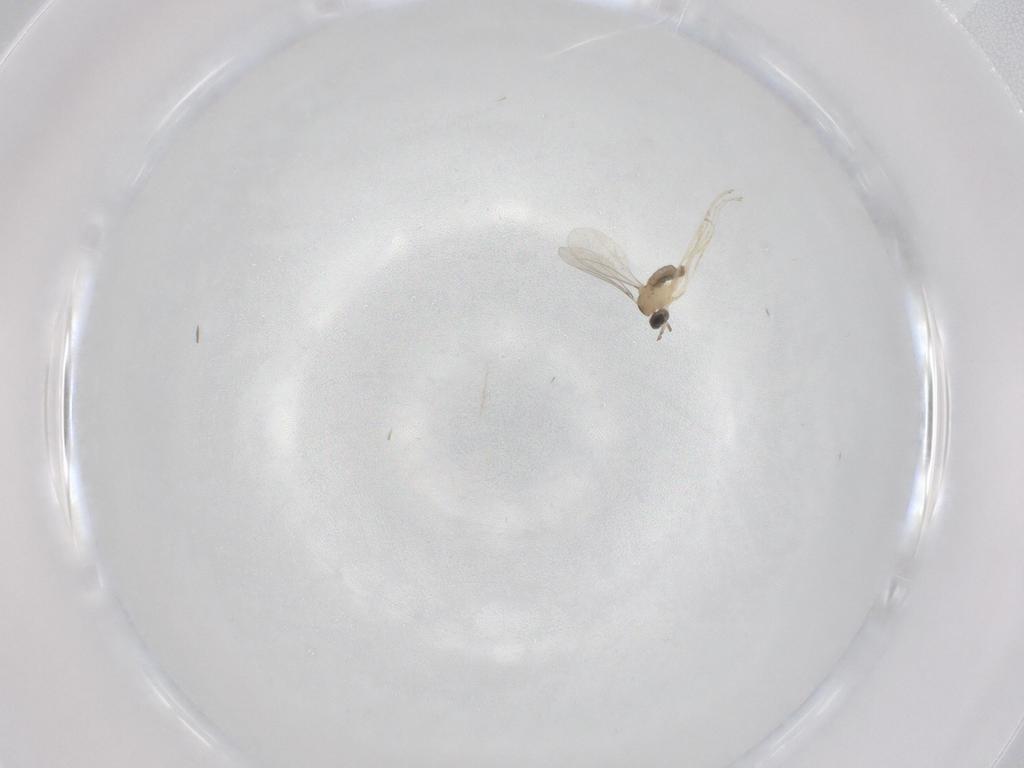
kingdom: Animalia
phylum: Arthropoda
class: Insecta
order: Diptera
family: Cecidomyiidae
